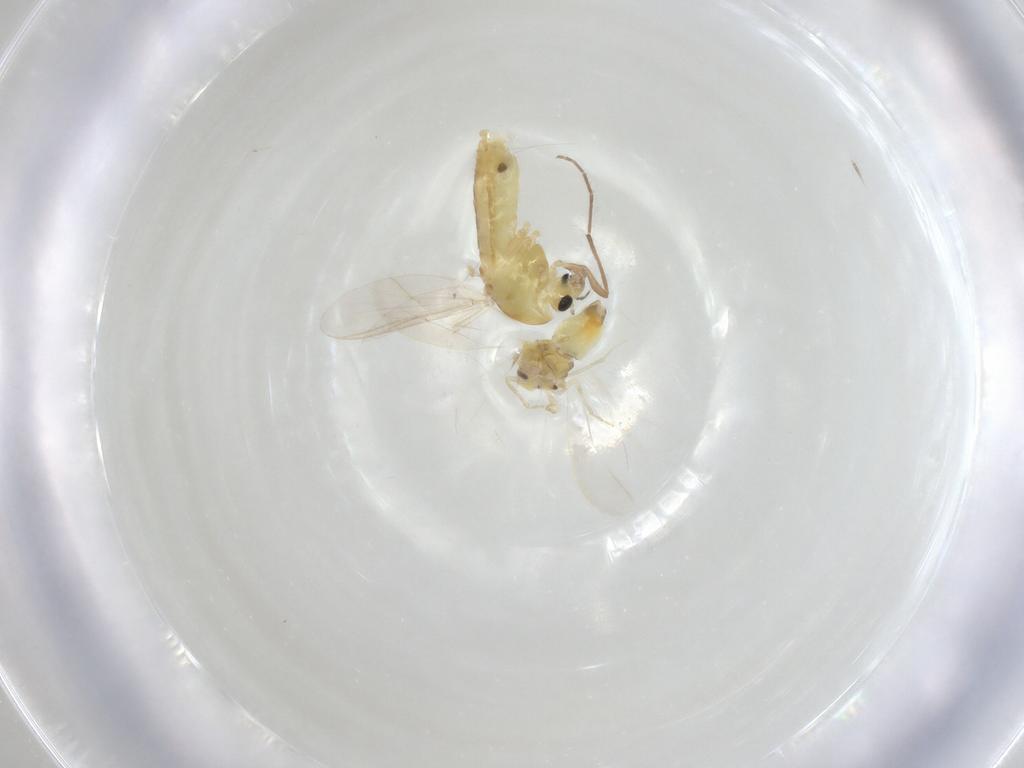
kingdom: Animalia
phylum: Arthropoda
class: Insecta
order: Diptera
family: Chironomidae
